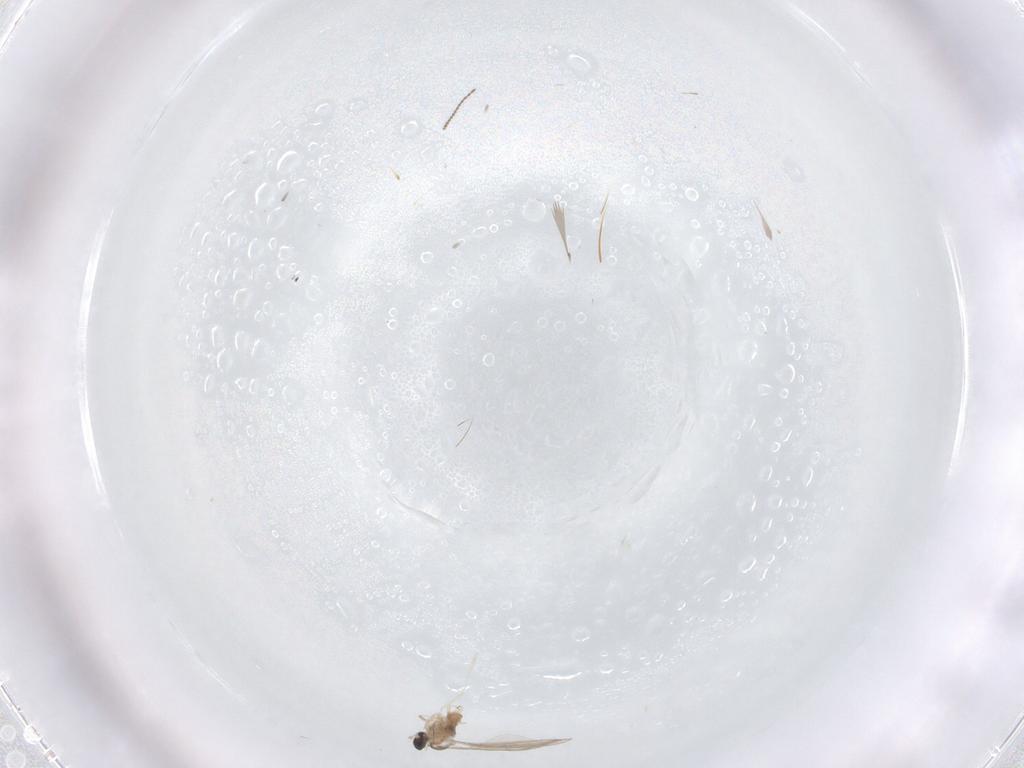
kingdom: Animalia
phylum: Arthropoda
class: Insecta
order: Diptera
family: Ceratopogonidae
